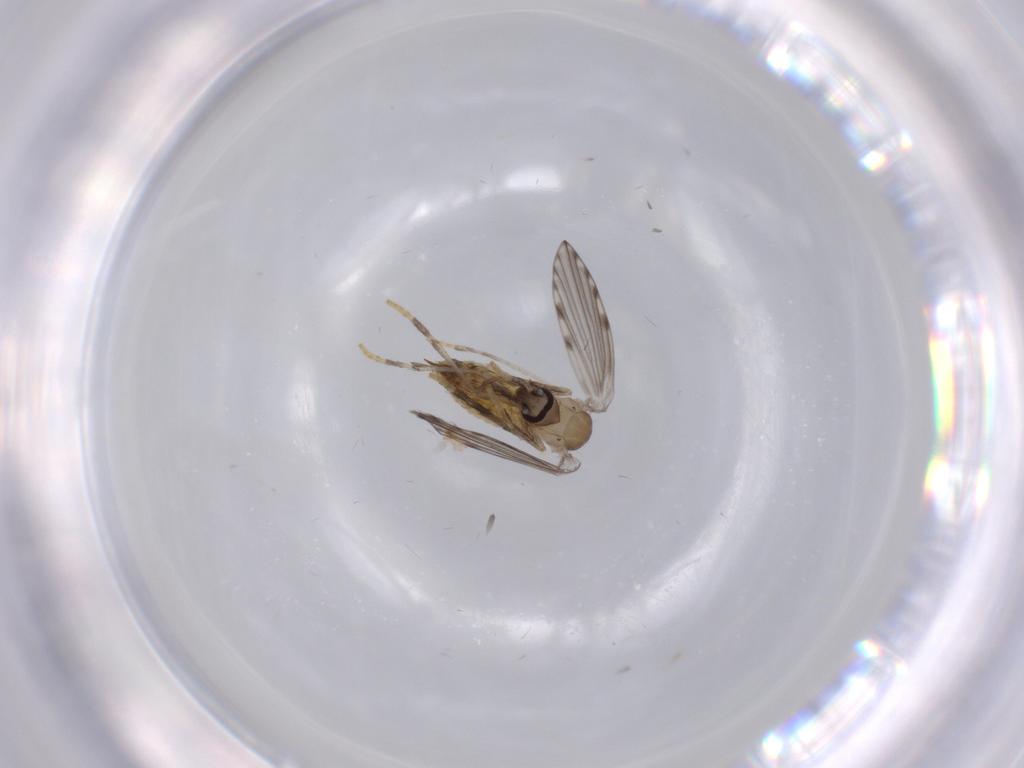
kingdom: Animalia
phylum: Arthropoda
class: Insecta
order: Diptera
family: Psychodidae
